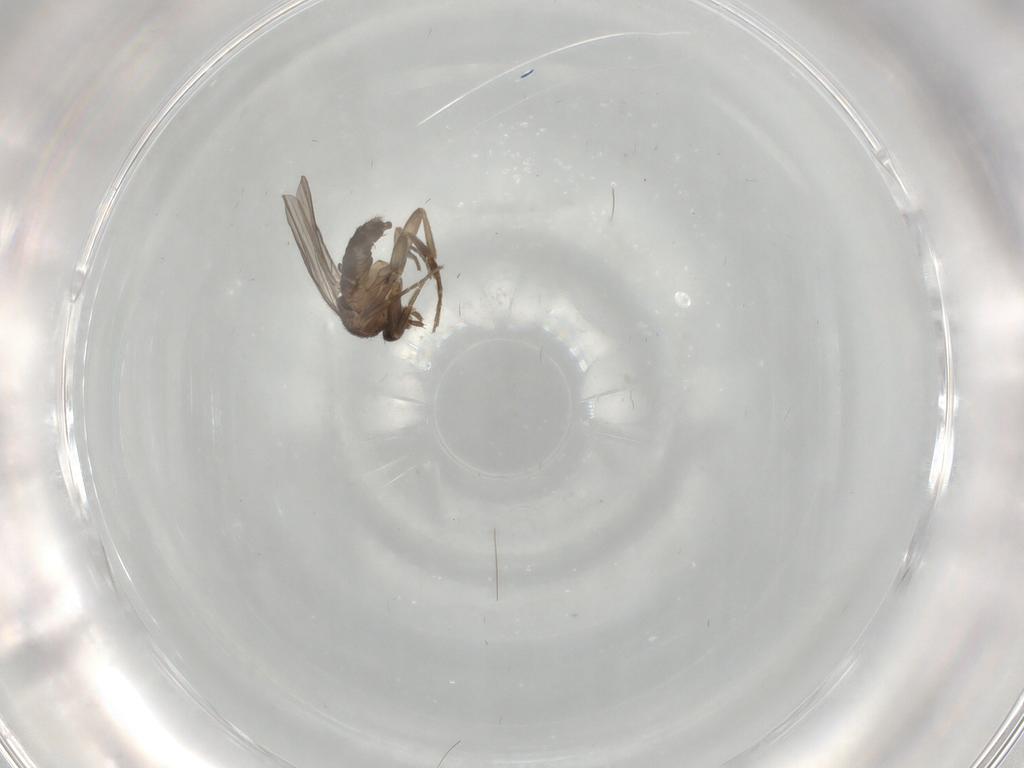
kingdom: Animalia
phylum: Arthropoda
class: Insecta
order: Diptera
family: Phoridae
